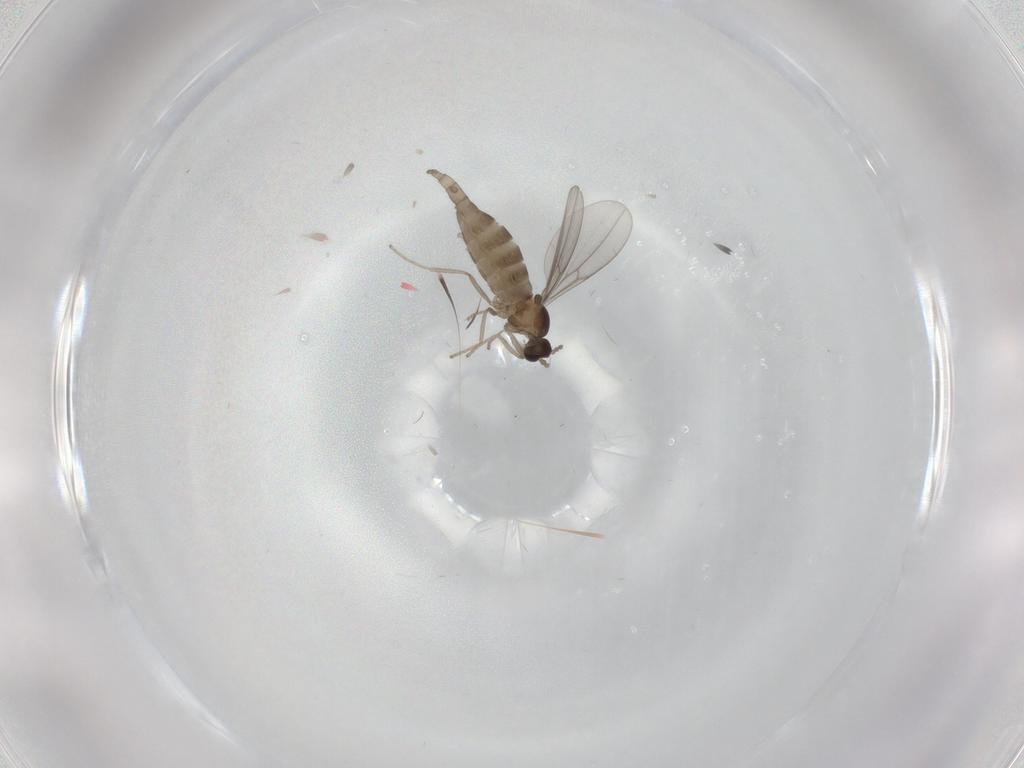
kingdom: Animalia
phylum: Arthropoda
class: Insecta
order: Diptera
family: Cecidomyiidae
